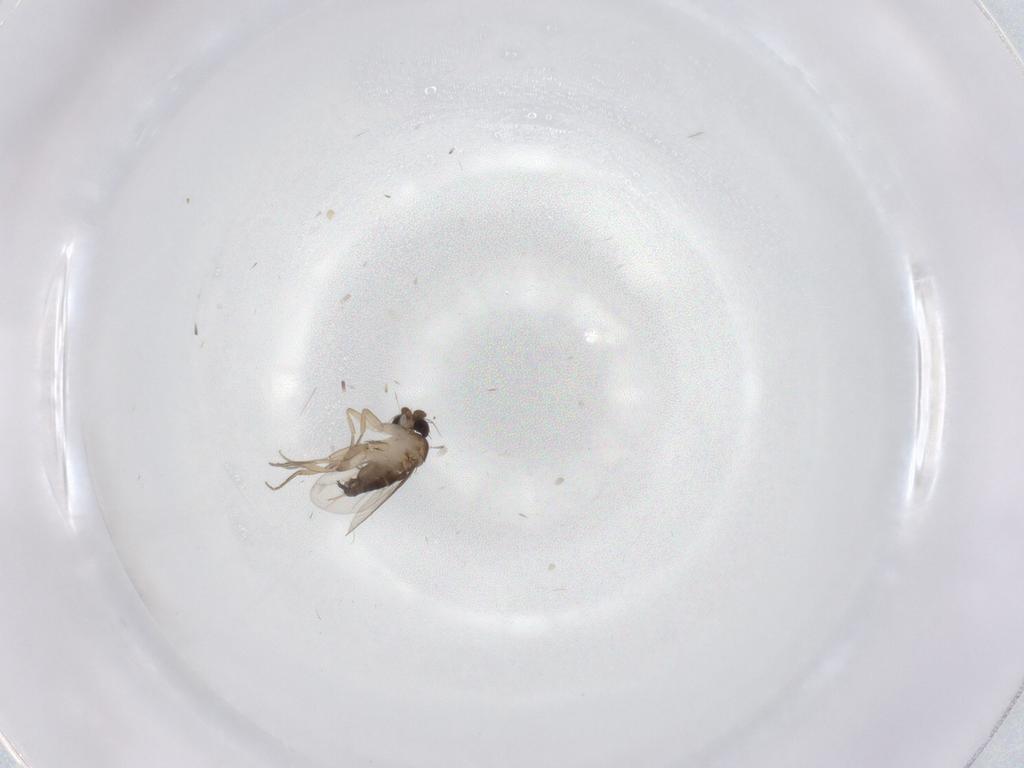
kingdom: Animalia
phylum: Arthropoda
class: Insecta
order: Diptera
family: Phoridae
